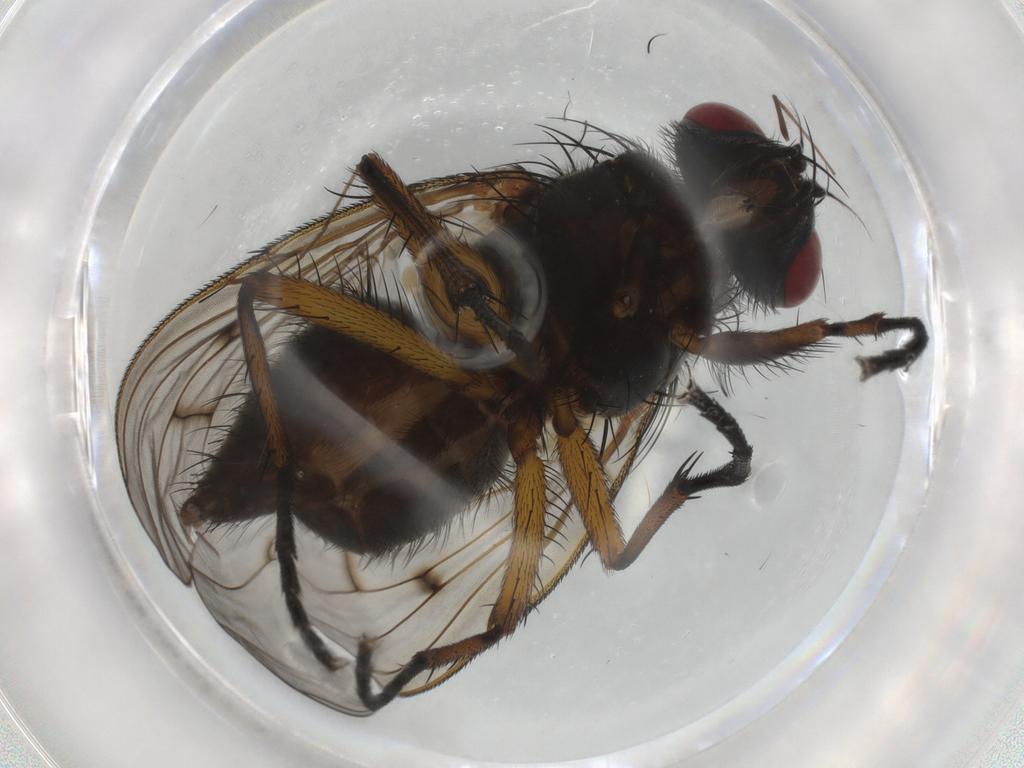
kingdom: Animalia
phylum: Arthropoda
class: Insecta
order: Diptera
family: Muscidae
